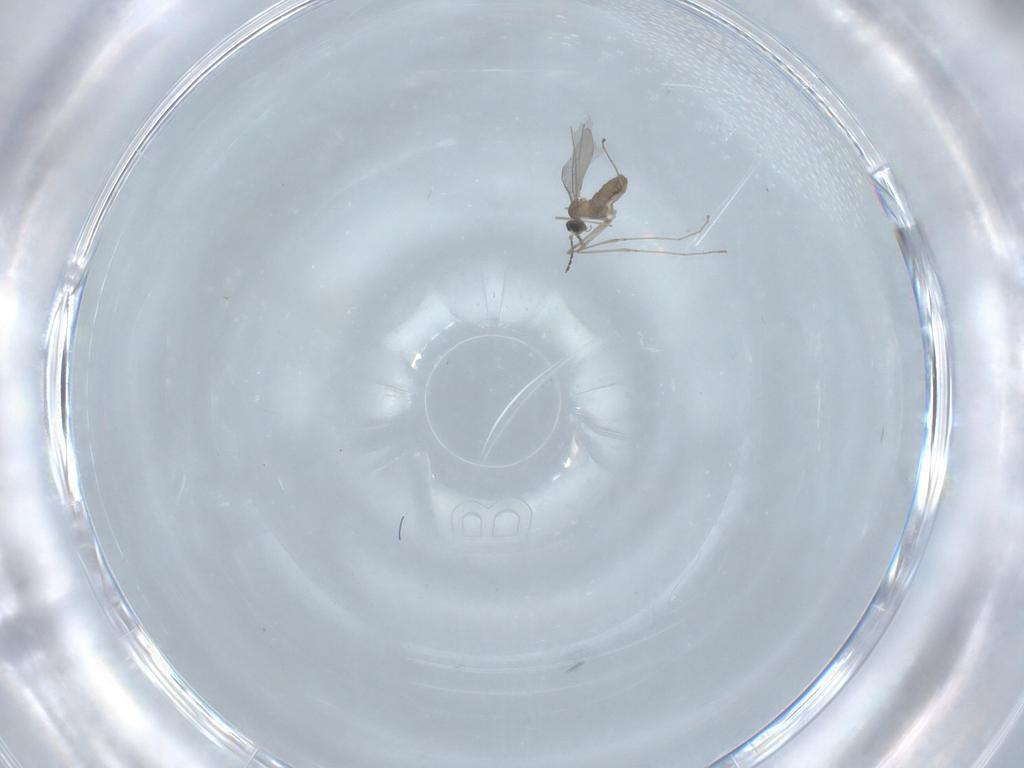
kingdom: Animalia
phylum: Arthropoda
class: Insecta
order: Diptera
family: Cecidomyiidae
